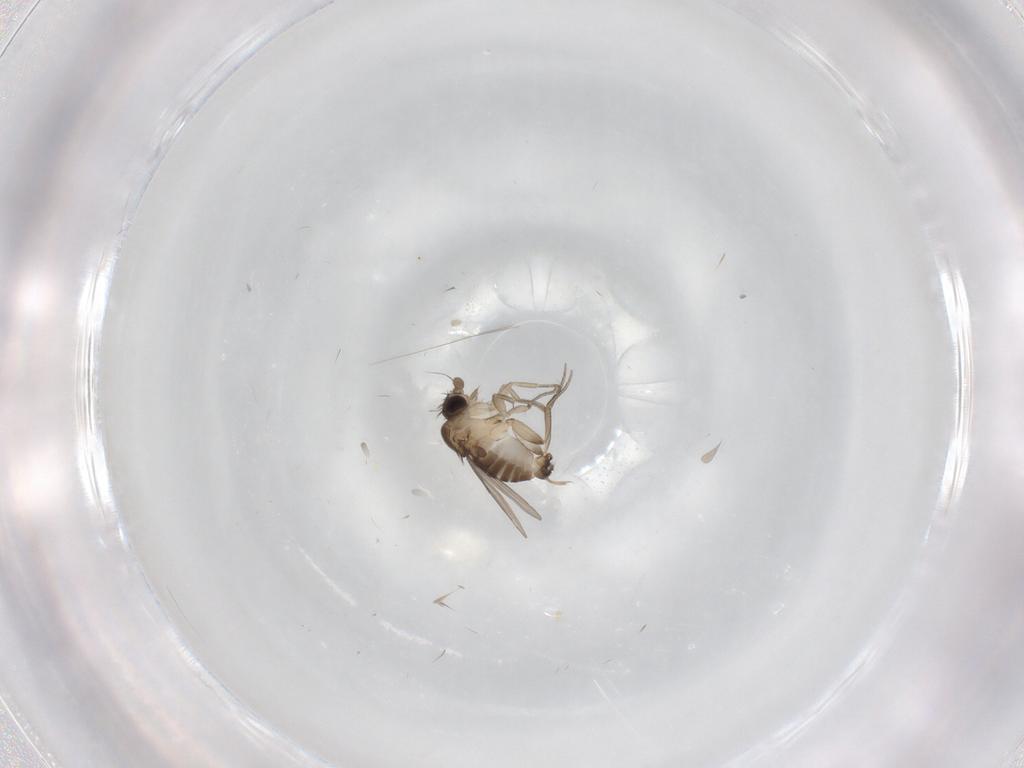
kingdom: Animalia
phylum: Arthropoda
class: Insecta
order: Diptera
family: Phoridae
